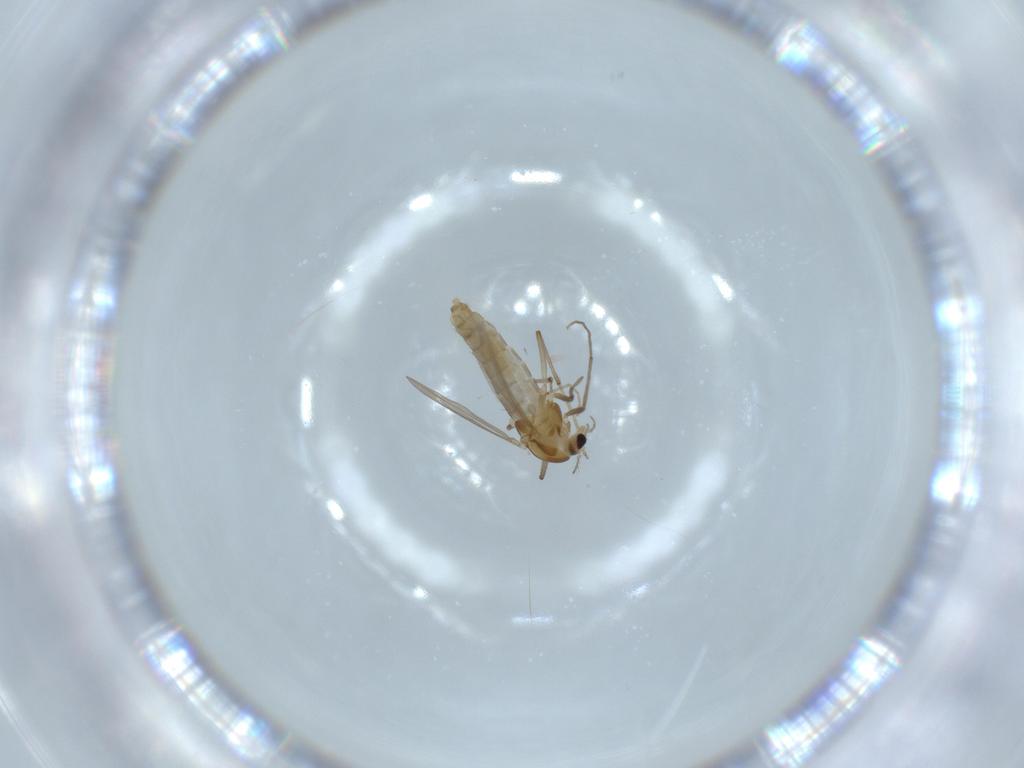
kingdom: Animalia
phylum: Arthropoda
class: Insecta
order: Diptera
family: Chironomidae
